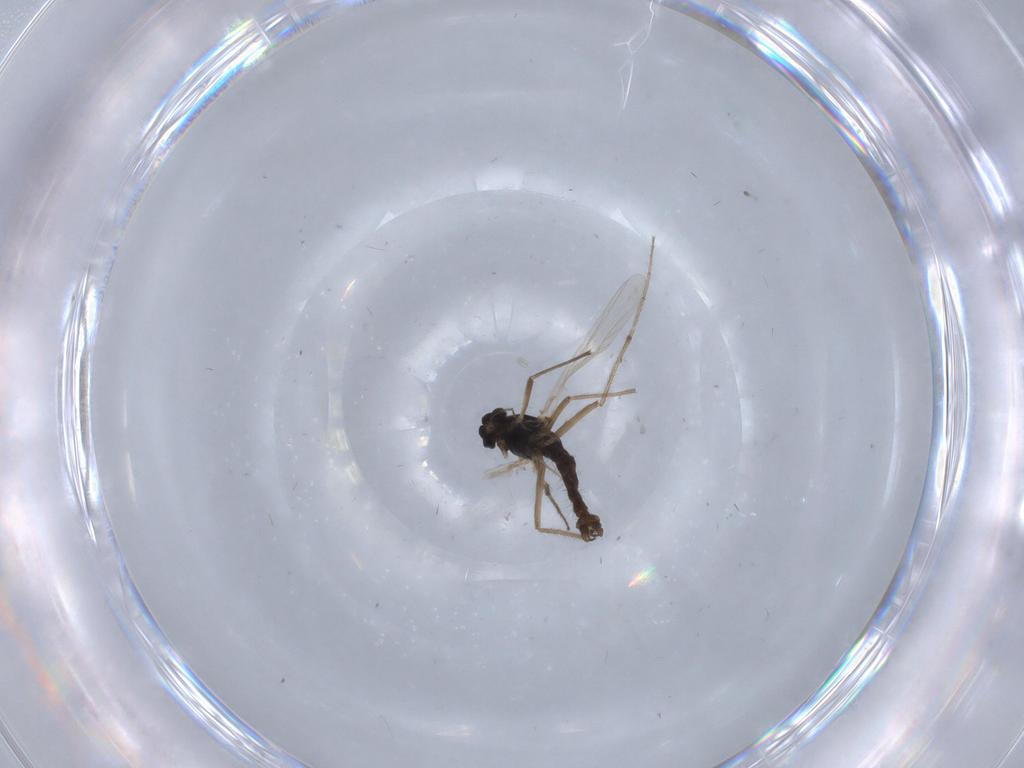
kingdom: Animalia
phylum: Arthropoda
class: Insecta
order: Diptera
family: Chironomidae
